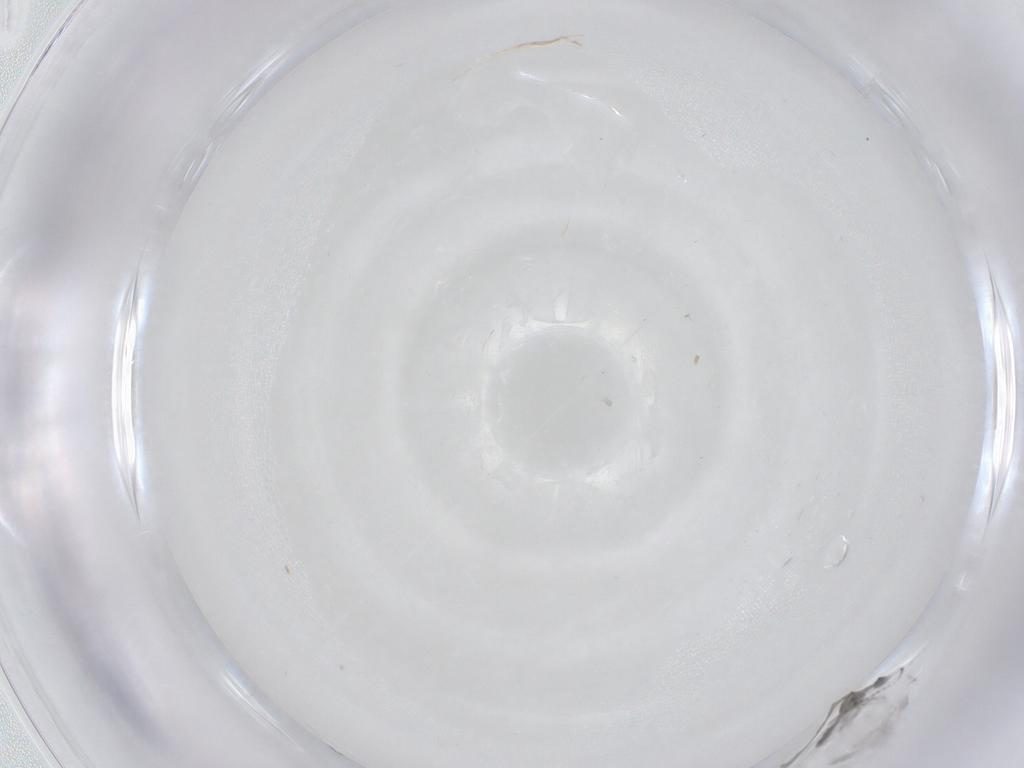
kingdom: Animalia
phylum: Arthropoda
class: Insecta
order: Diptera
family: Cecidomyiidae
